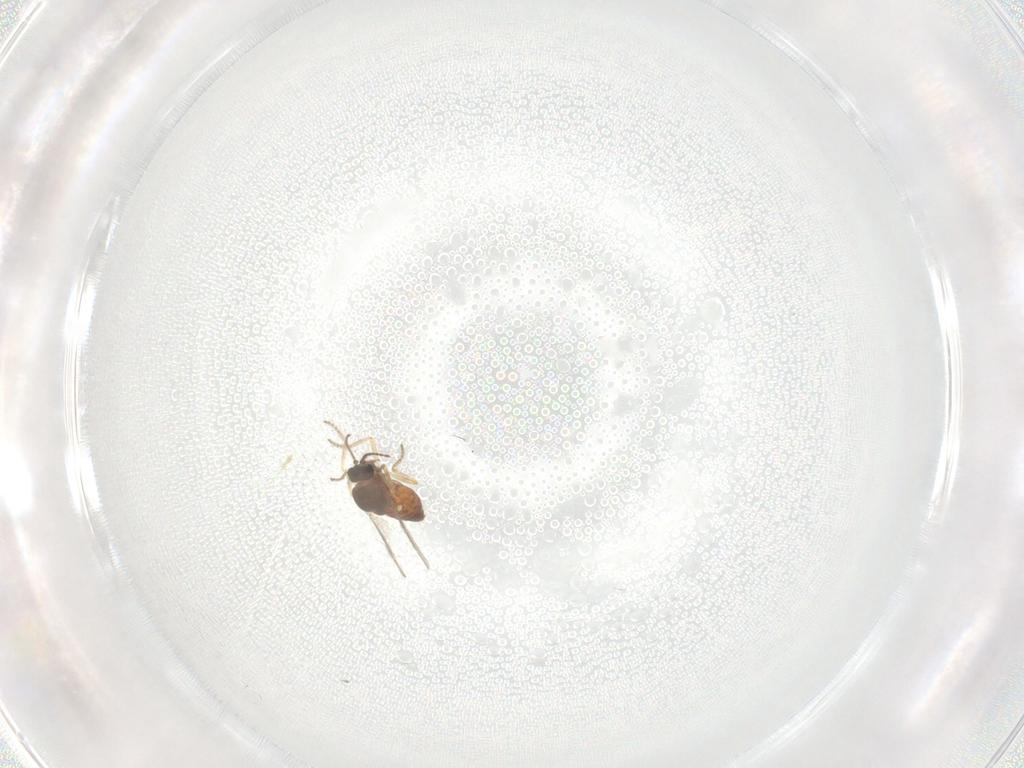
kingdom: Animalia
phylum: Arthropoda
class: Insecta
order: Diptera
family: Ceratopogonidae
